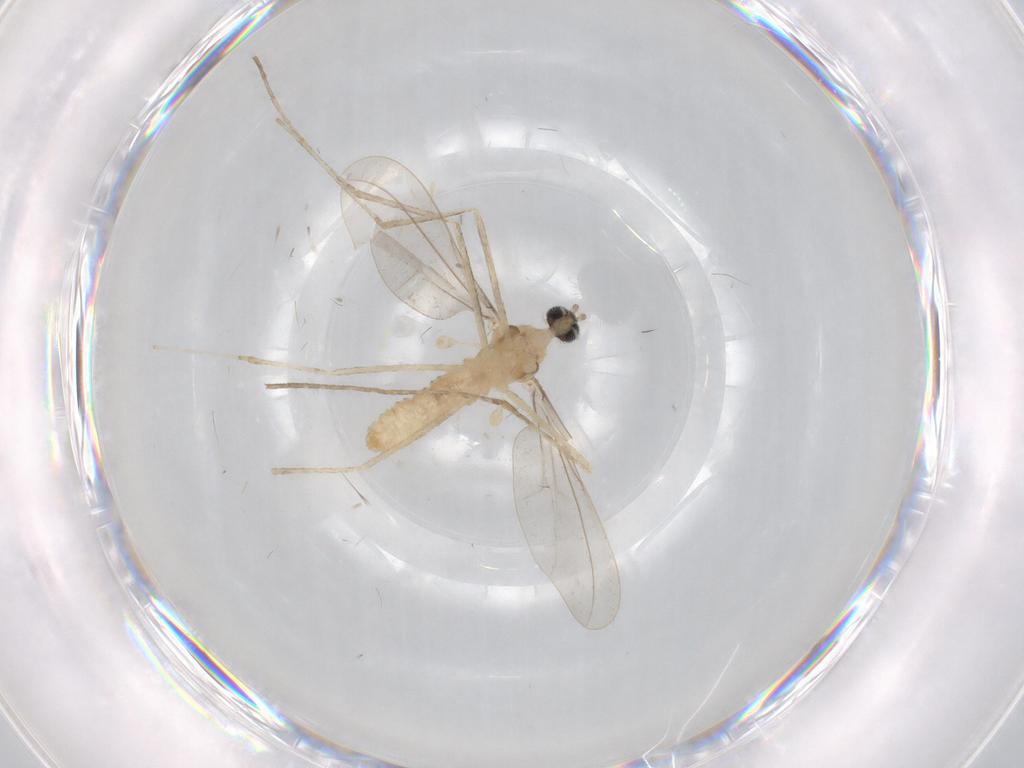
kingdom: Animalia
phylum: Arthropoda
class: Insecta
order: Diptera
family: Cecidomyiidae
